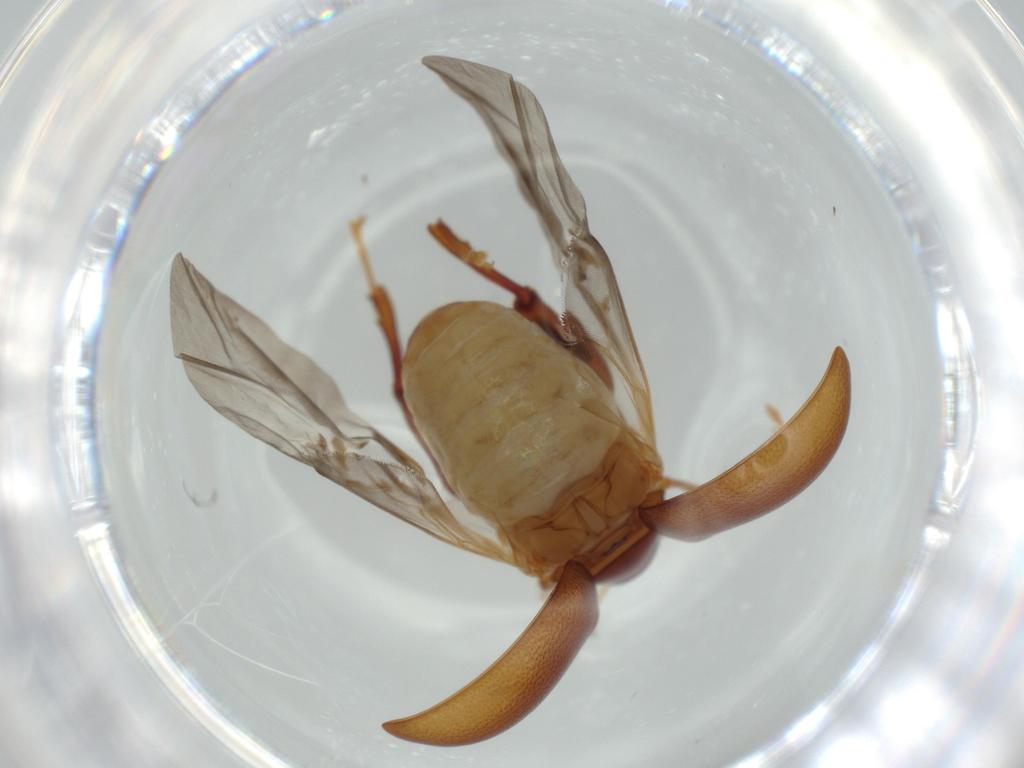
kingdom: Animalia
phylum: Arthropoda
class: Insecta
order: Coleoptera
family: Chrysomelidae
